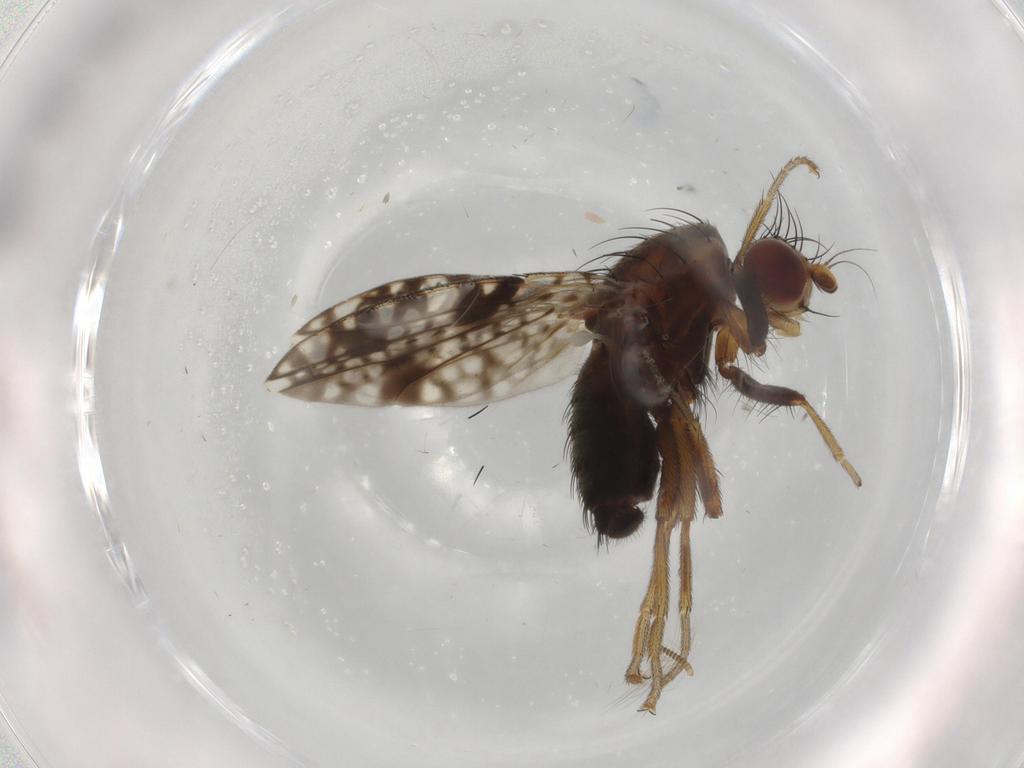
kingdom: Animalia
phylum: Arthropoda
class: Insecta
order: Diptera
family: Tephritidae
